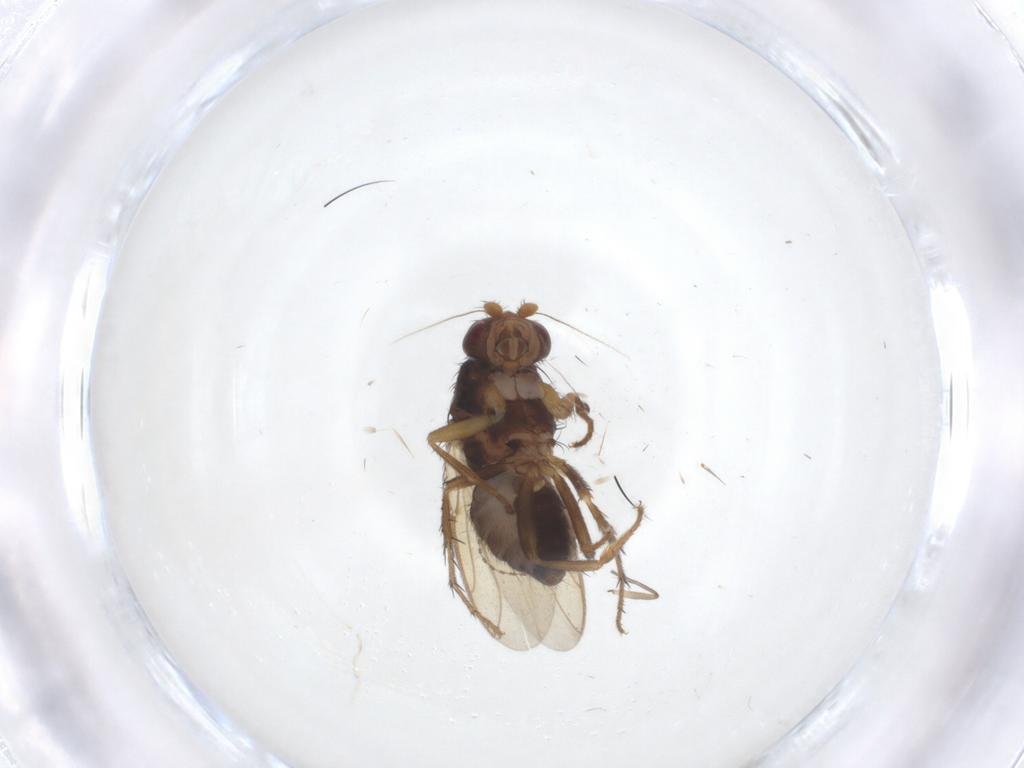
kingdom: Animalia
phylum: Arthropoda
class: Insecta
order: Diptera
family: Sphaeroceridae
